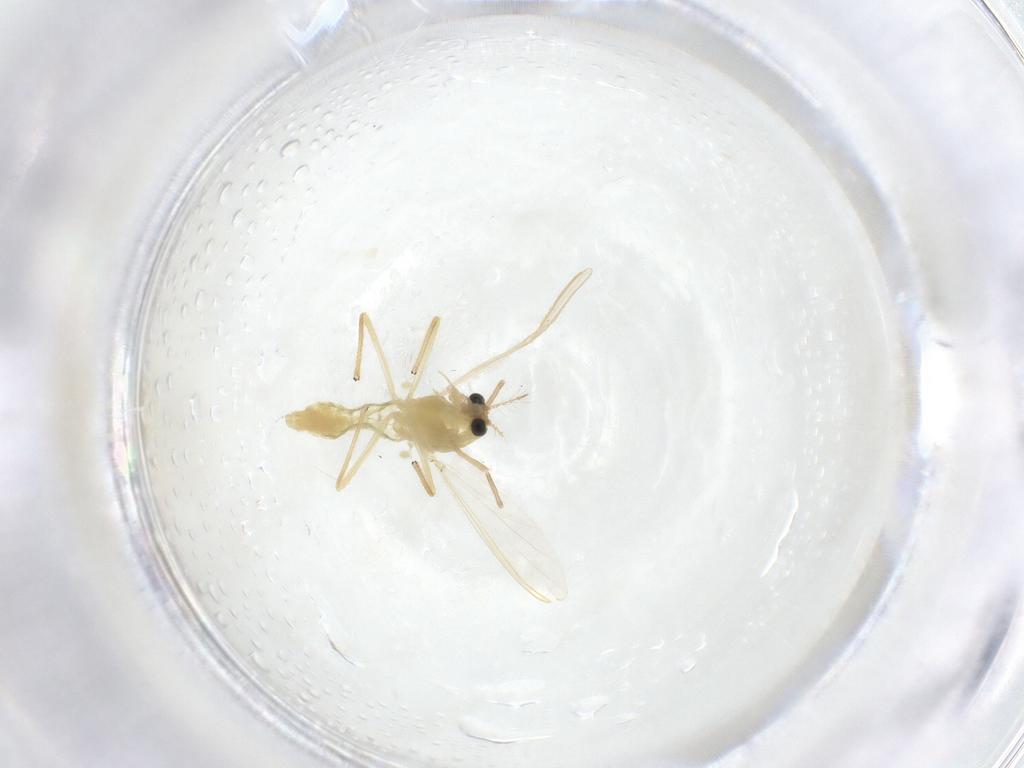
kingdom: Animalia
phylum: Arthropoda
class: Insecta
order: Diptera
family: Chironomidae
